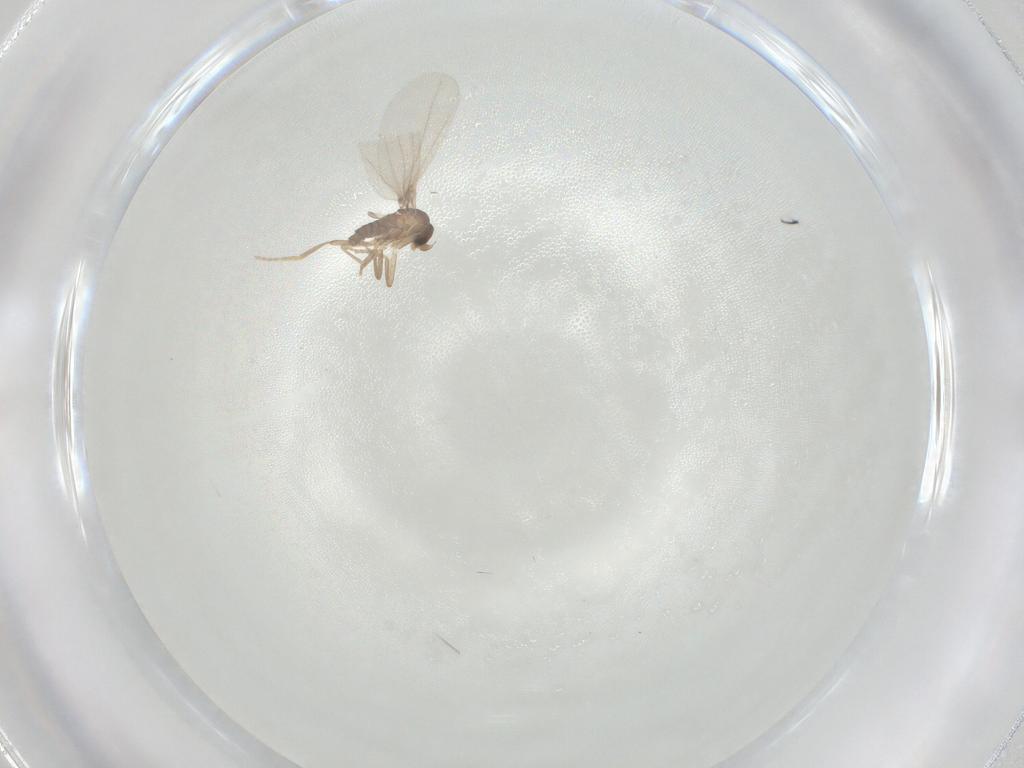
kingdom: Animalia
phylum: Arthropoda
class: Insecta
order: Diptera
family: Phoridae
